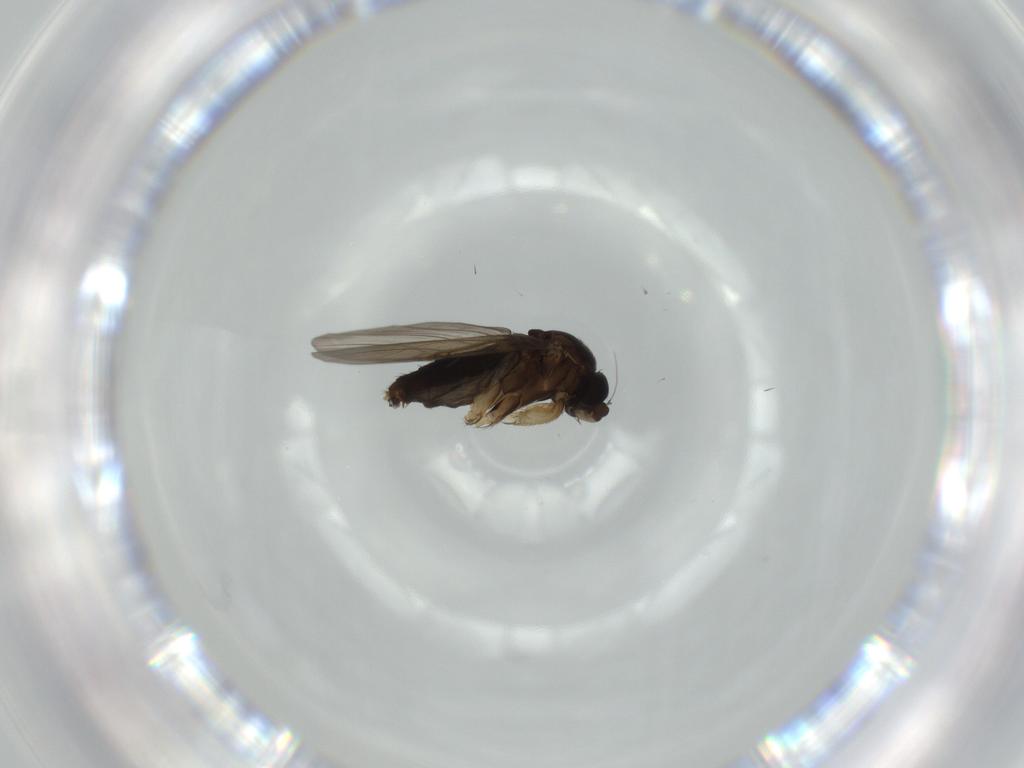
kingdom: Animalia
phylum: Arthropoda
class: Insecta
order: Diptera
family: Phoridae
